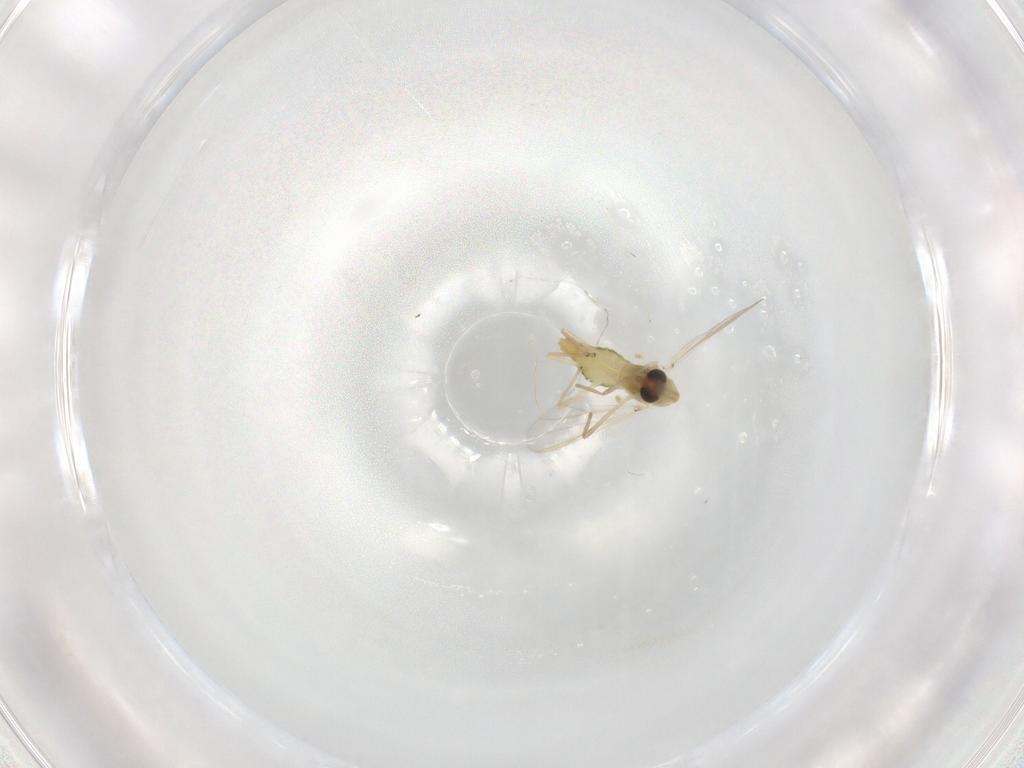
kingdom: Animalia
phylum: Arthropoda
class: Insecta
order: Diptera
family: Chironomidae
